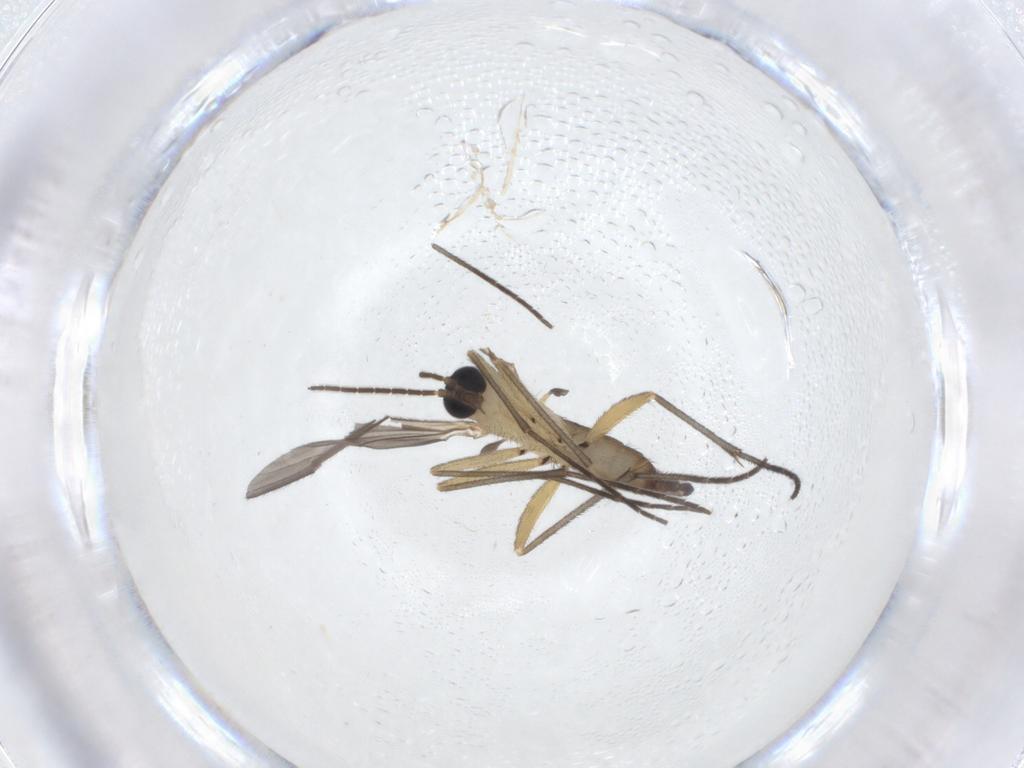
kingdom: Animalia
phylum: Arthropoda
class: Insecta
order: Diptera
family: Sciaridae
